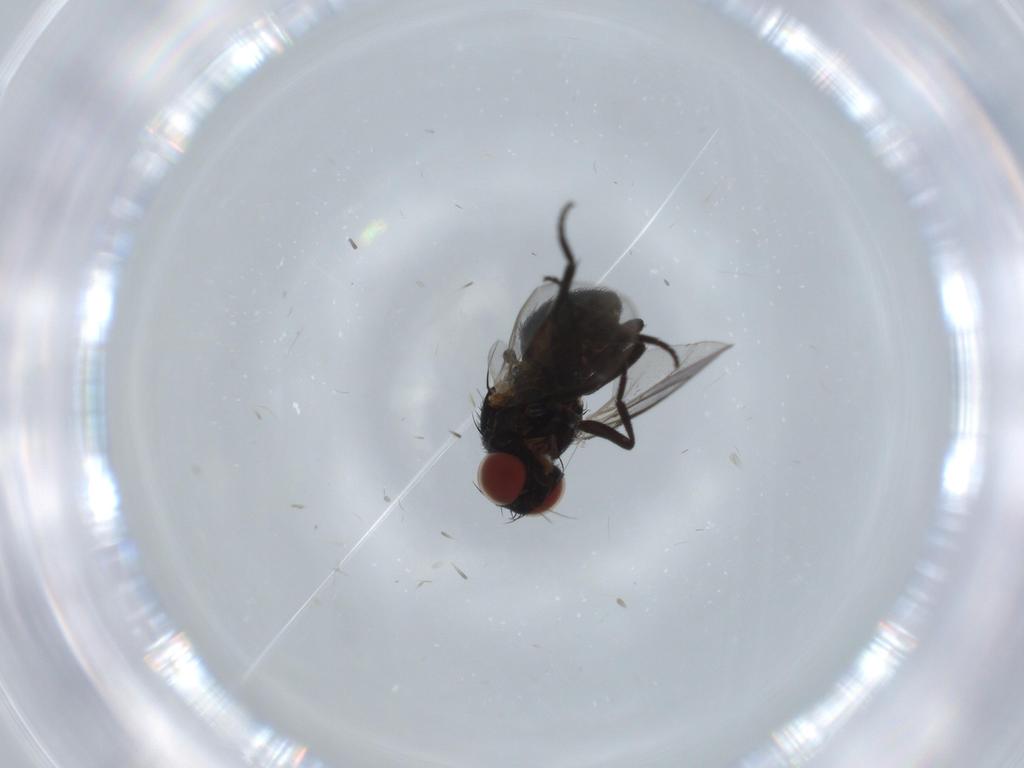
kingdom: Animalia
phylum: Arthropoda
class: Insecta
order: Diptera
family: Agromyzidae
